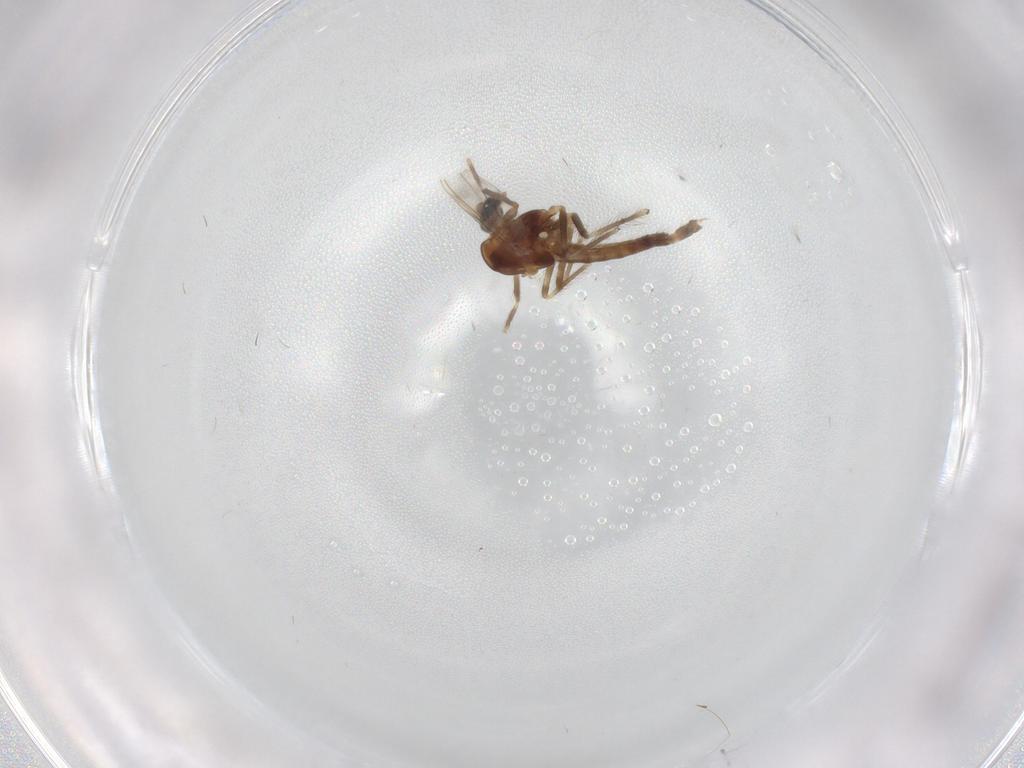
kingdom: Animalia
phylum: Arthropoda
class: Insecta
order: Diptera
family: Chironomidae
